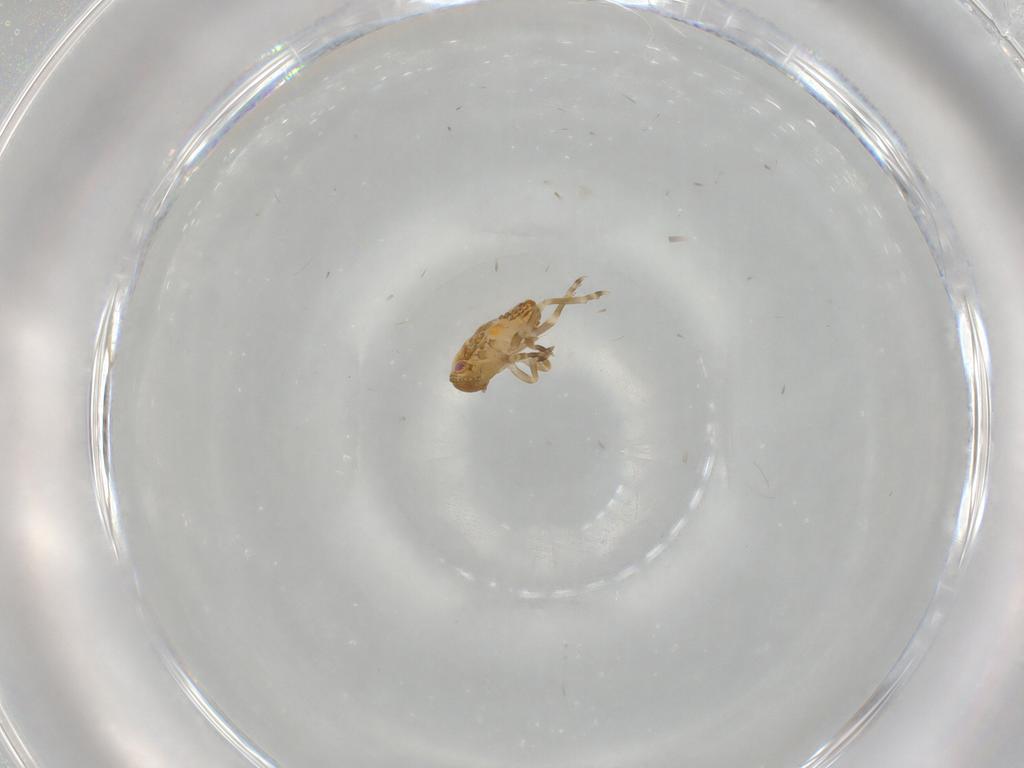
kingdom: Animalia
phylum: Arthropoda
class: Insecta
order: Hemiptera
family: Flatidae
